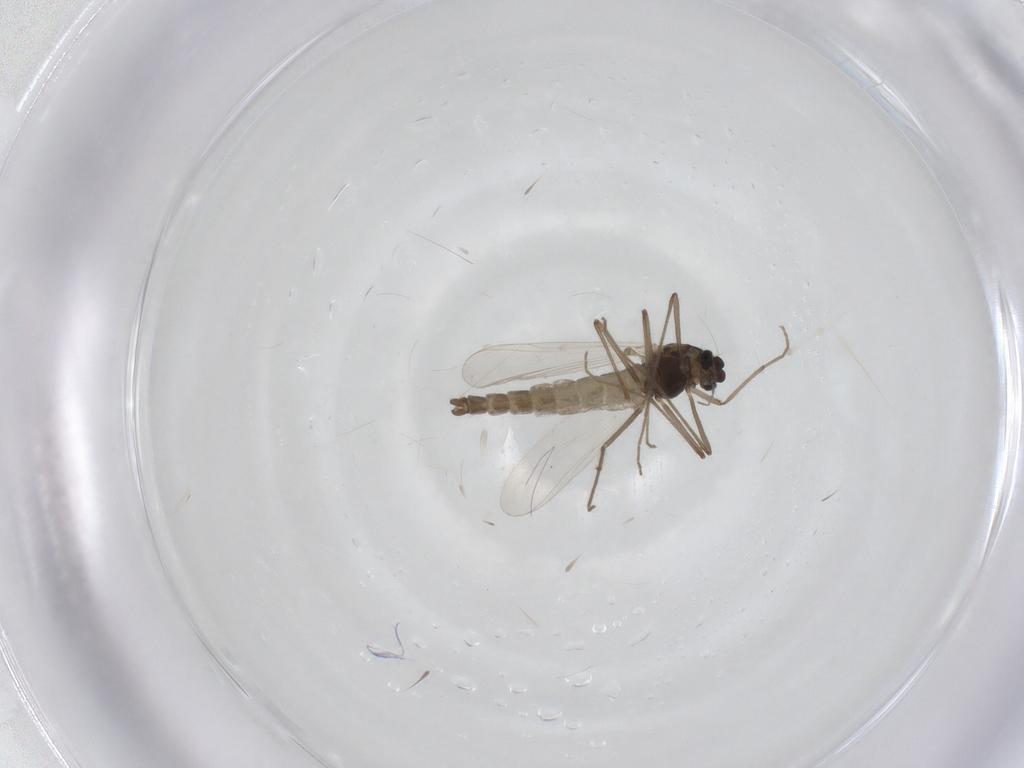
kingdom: Animalia
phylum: Arthropoda
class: Insecta
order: Diptera
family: Chironomidae
